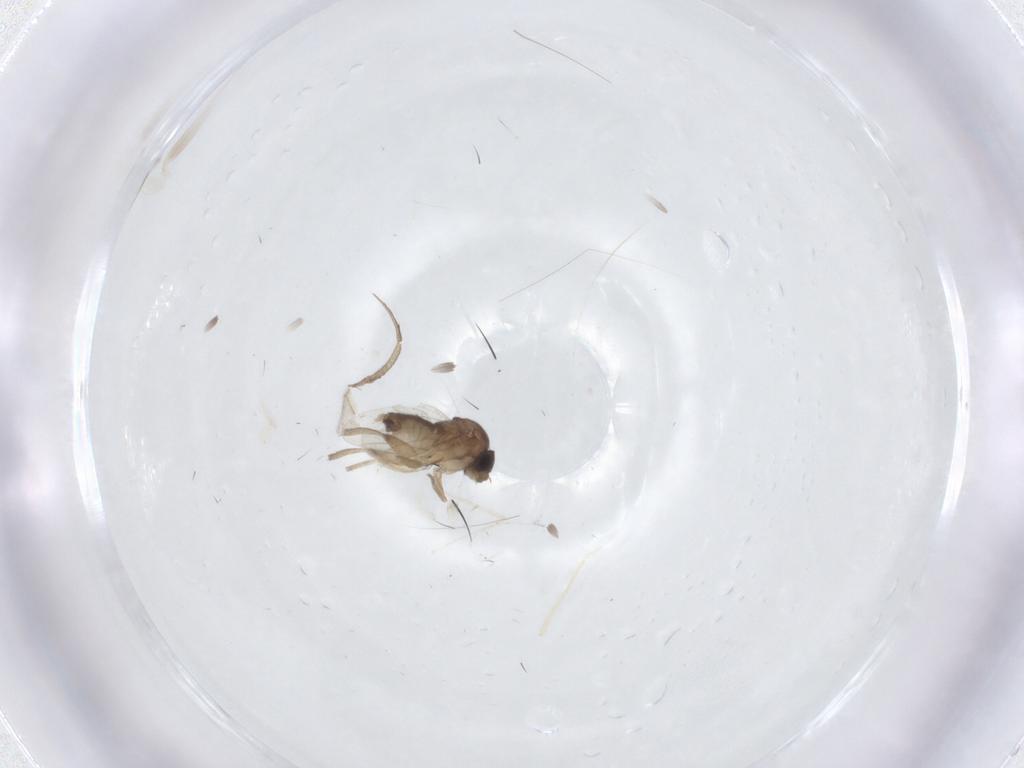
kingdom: Animalia
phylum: Arthropoda
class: Insecta
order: Diptera
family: Phoridae
